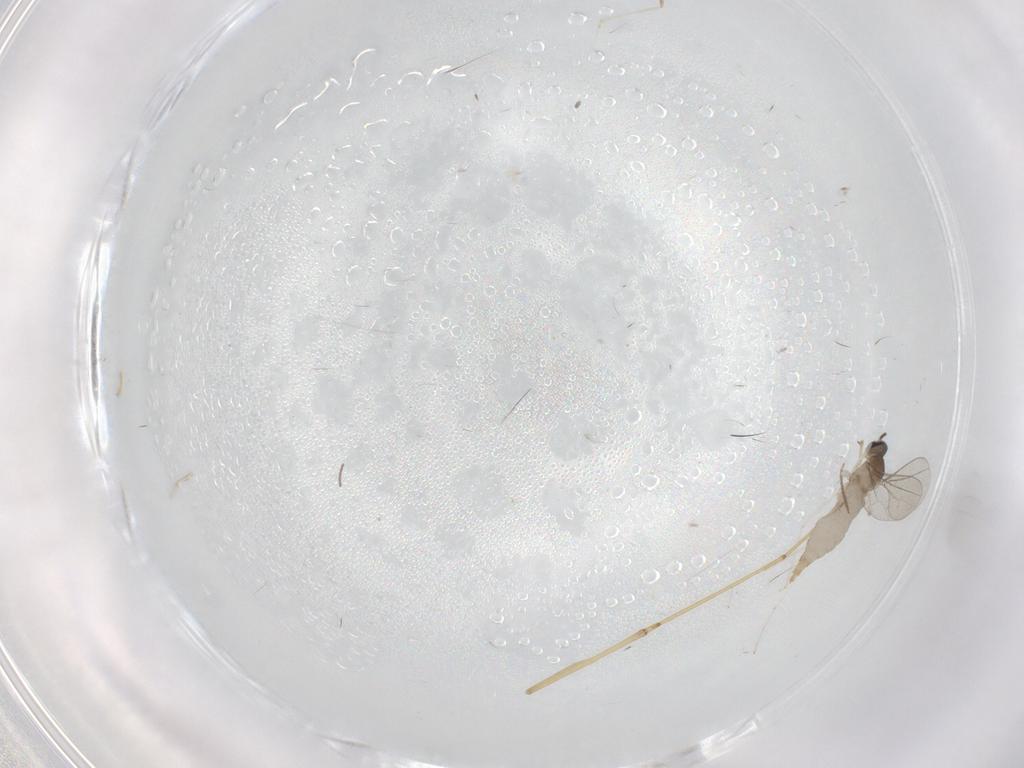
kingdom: Animalia
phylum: Arthropoda
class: Insecta
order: Diptera
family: Cecidomyiidae
